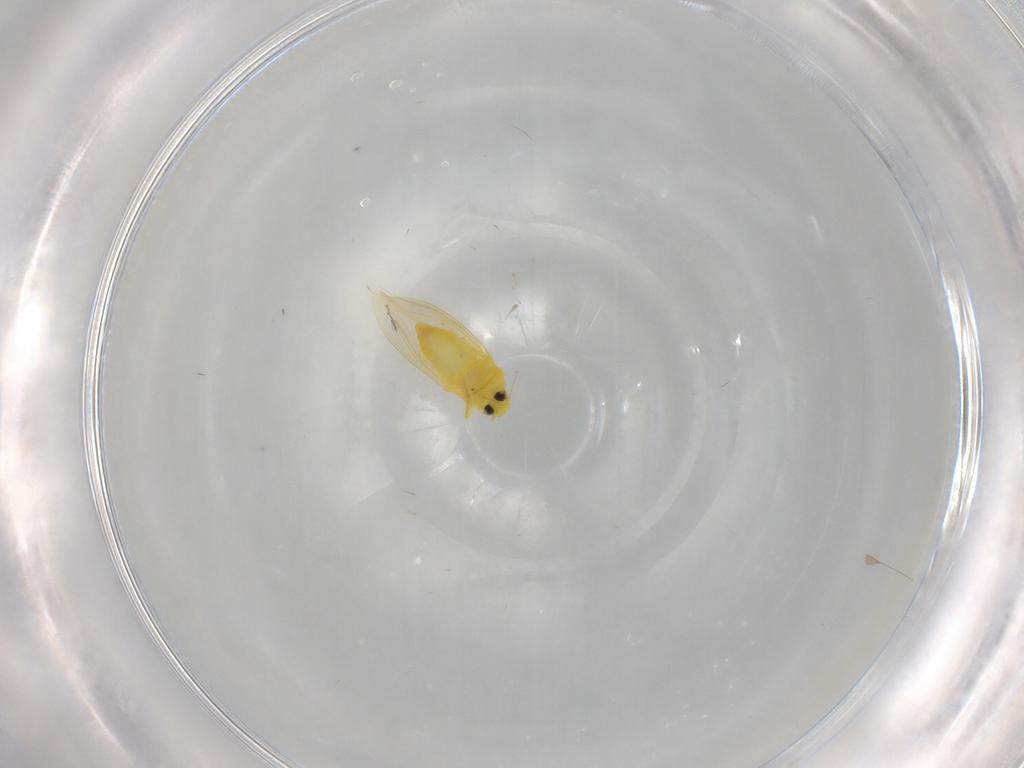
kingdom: Animalia
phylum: Arthropoda
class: Insecta
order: Hemiptera
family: Aleyrodidae
